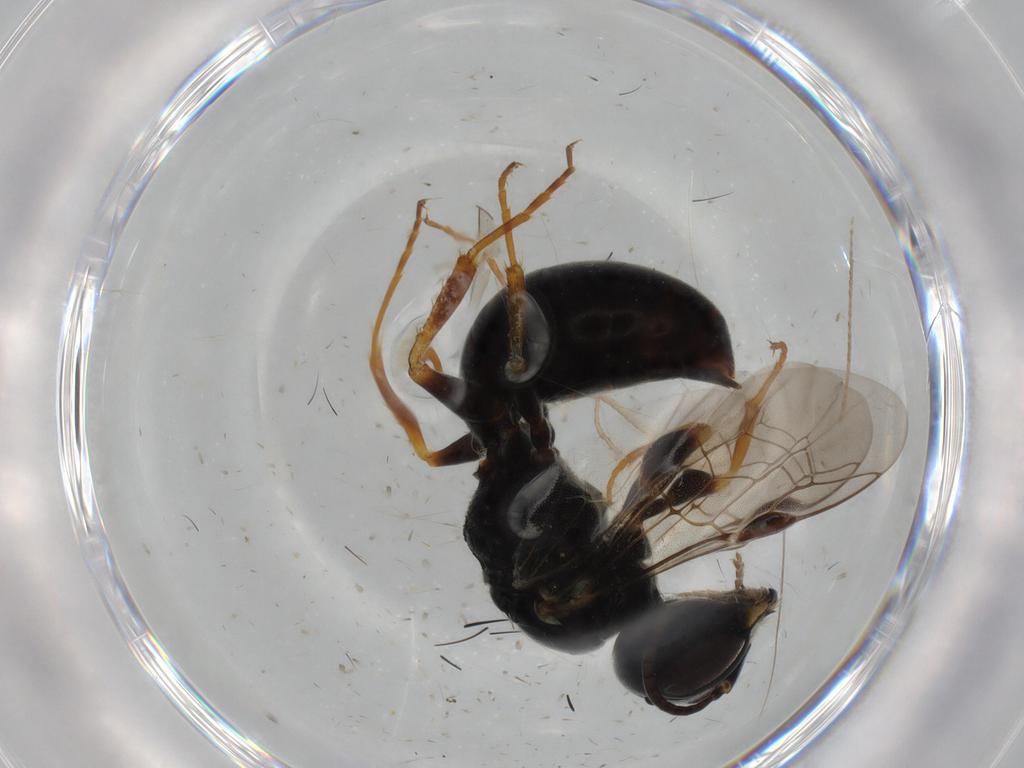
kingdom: Animalia
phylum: Arthropoda
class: Insecta
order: Hymenoptera
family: Crabronidae
